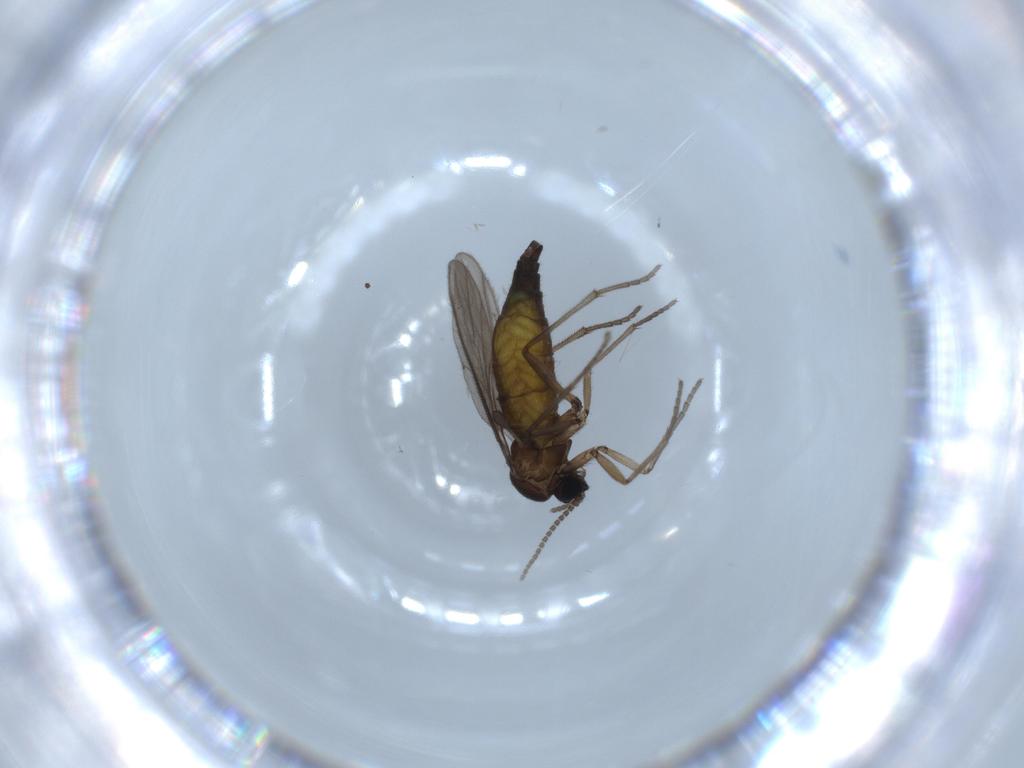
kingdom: Animalia
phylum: Arthropoda
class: Insecta
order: Diptera
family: Sciaridae
